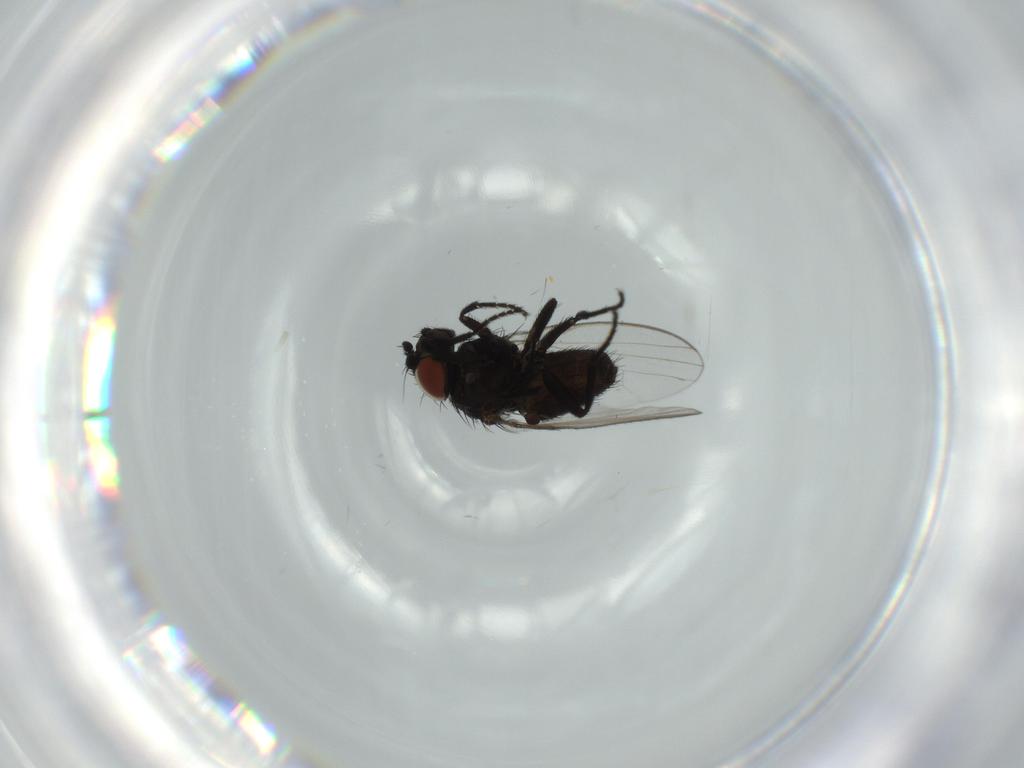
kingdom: Animalia
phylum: Arthropoda
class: Insecta
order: Diptera
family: Milichiidae
